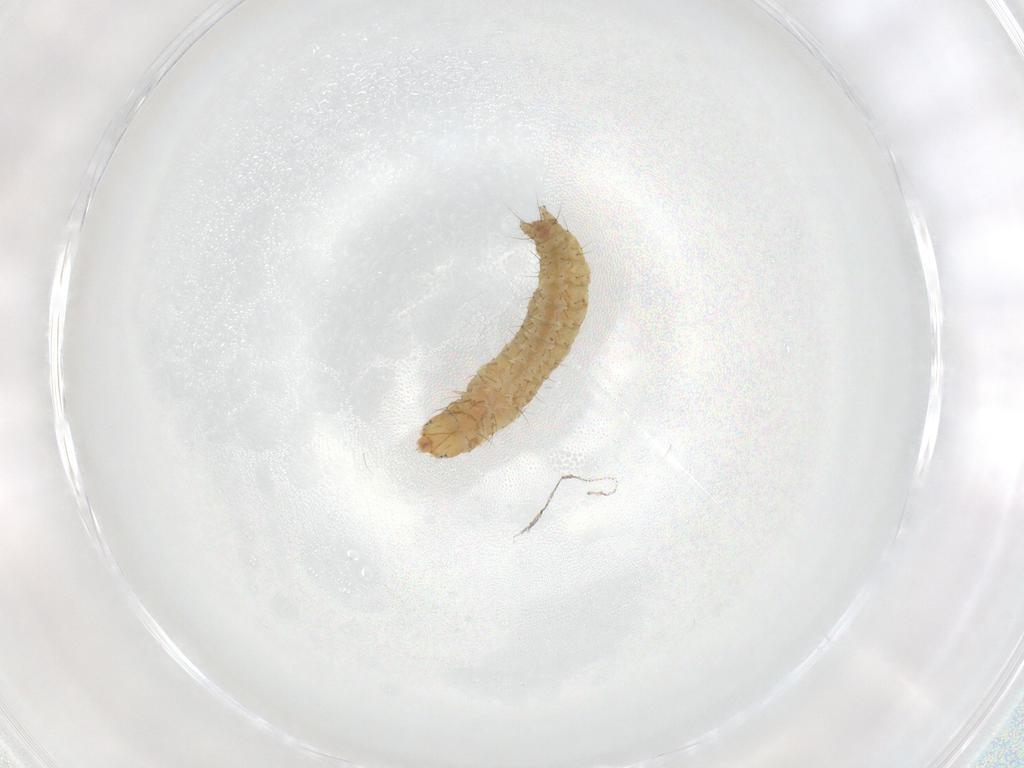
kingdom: Animalia
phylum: Arthropoda
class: Insecta
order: Lepidoptera
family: Gelechiidae
